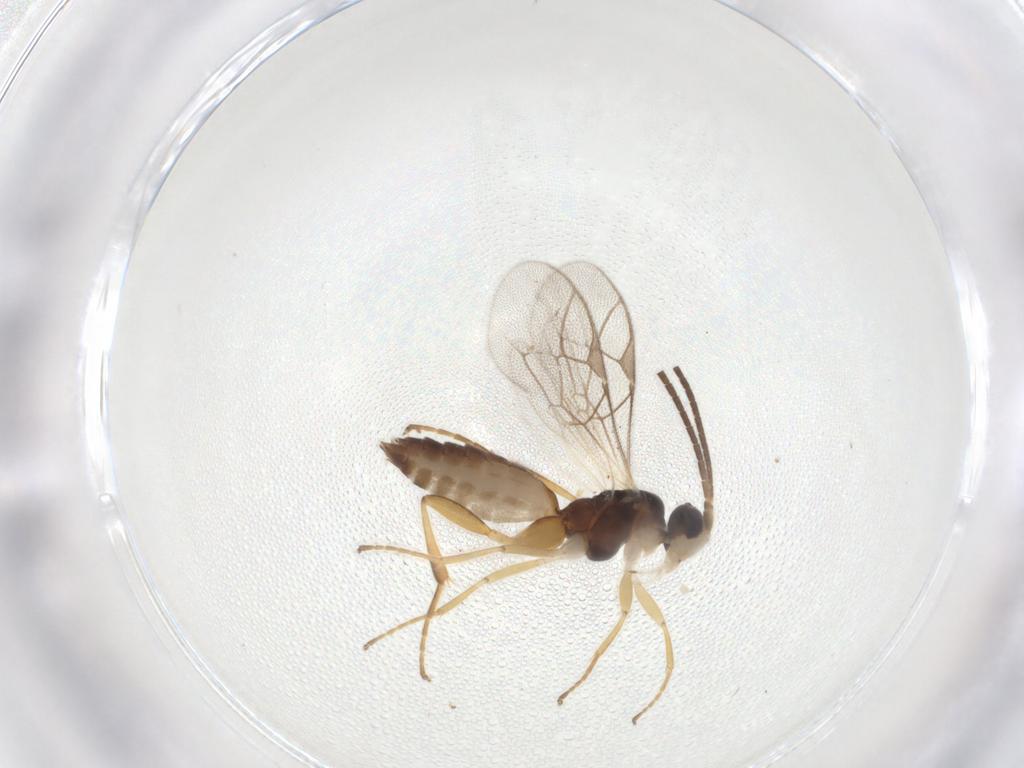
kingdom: Animalia
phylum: Arthropoda
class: Insecta
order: Hymenoptera
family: Ichneumonidae
